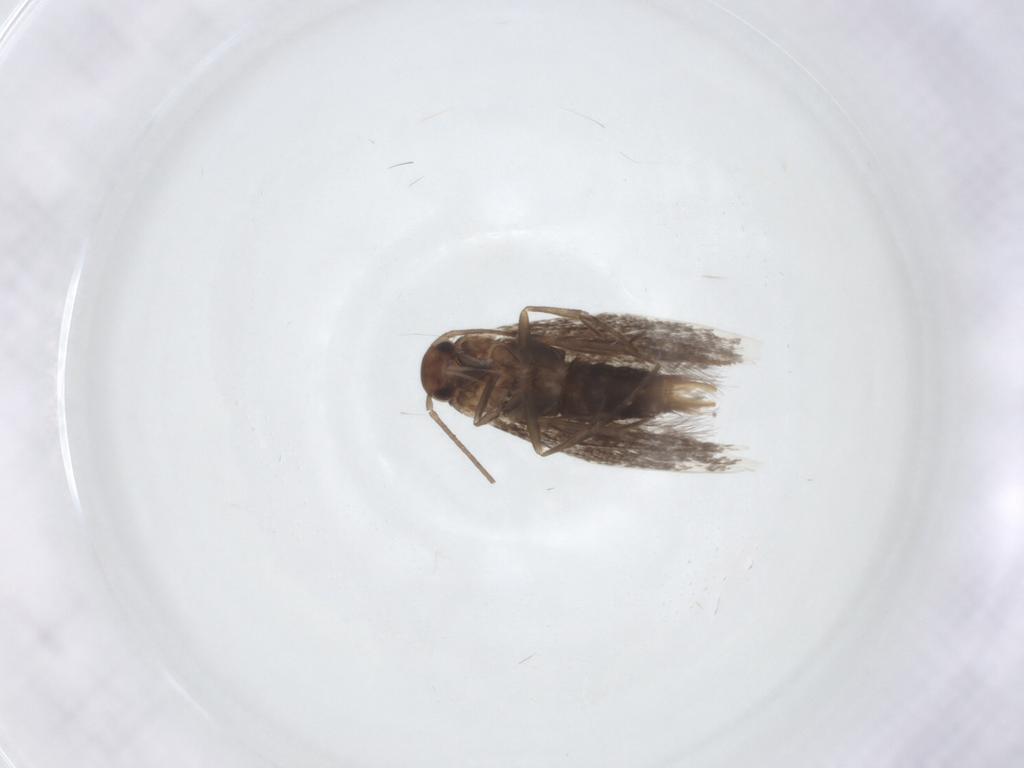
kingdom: Animalia
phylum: Arthropoda
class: Insecta
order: Lepidoptera
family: Elachistidae
